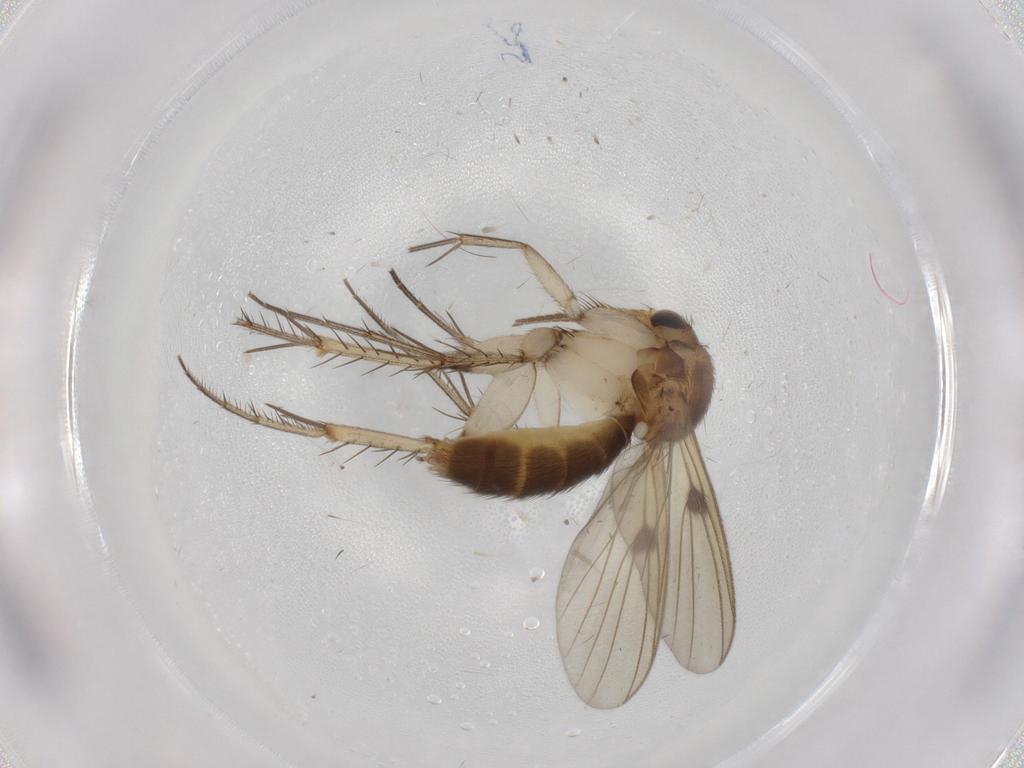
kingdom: Animalia
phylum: Arthropoda
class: Insecta
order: Diptera
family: Mycetophilidae
